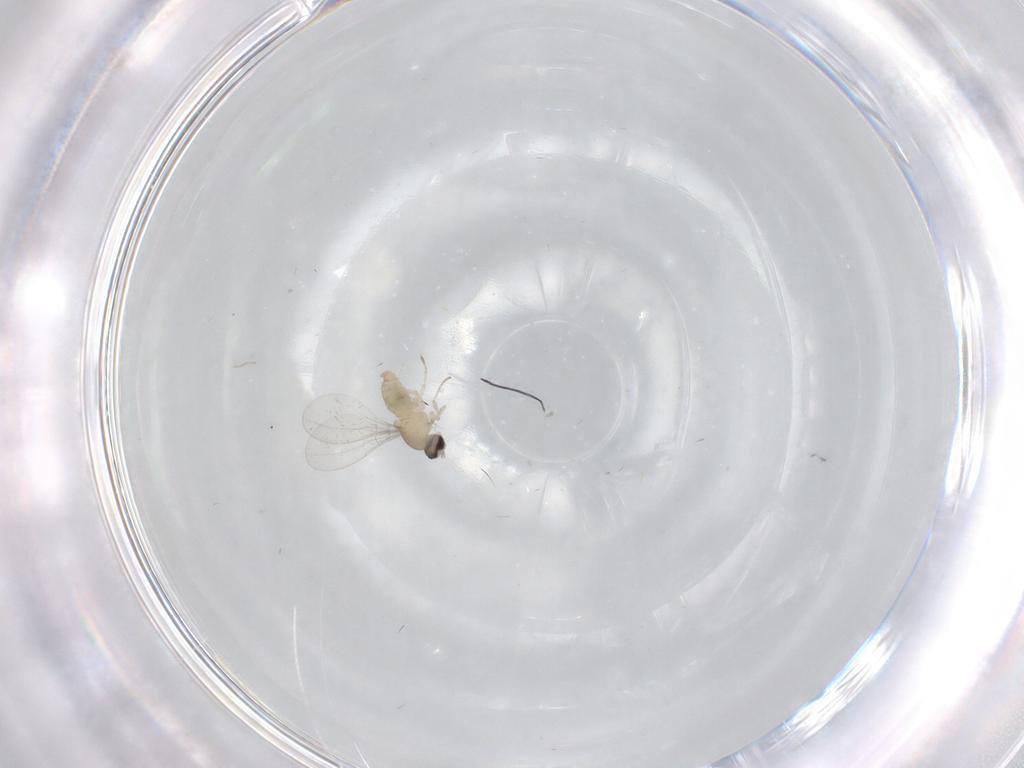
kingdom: Animalia
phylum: Arthropoda
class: Insecta
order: Diptera
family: Cecidomyiidae
